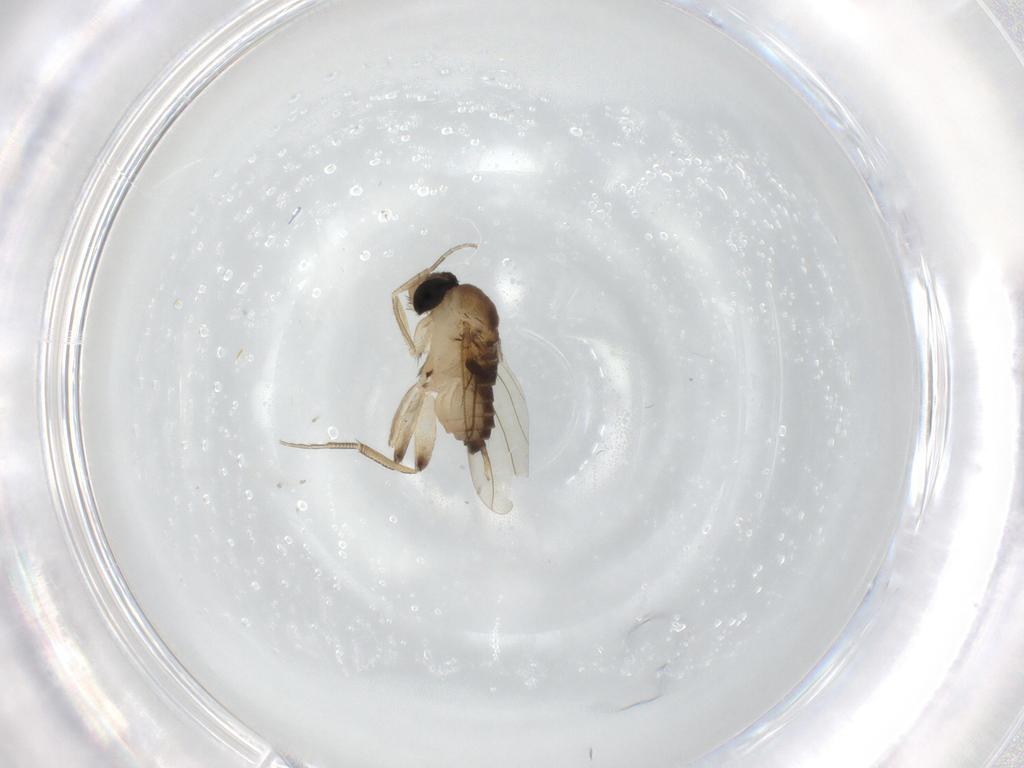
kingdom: Animalia
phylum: Arthropoda
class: Insecta
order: Diptera
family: Phoridae
